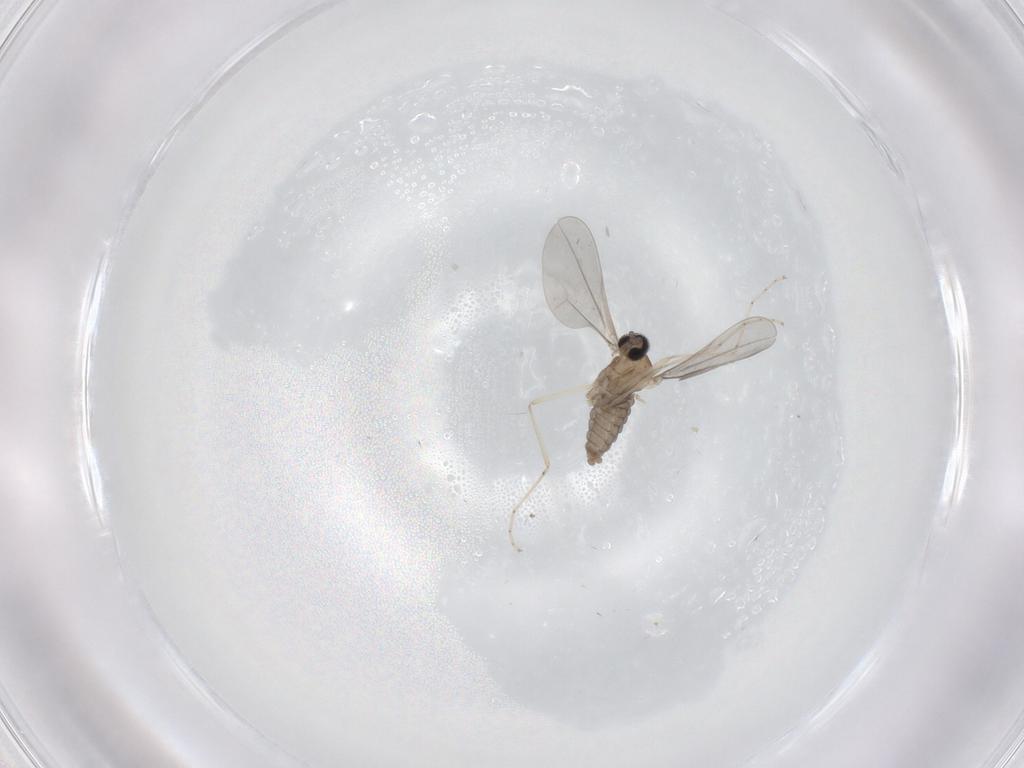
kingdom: Animalia
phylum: Arthropoda
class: Insecta
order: Diptera
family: Cecidomyiidae
